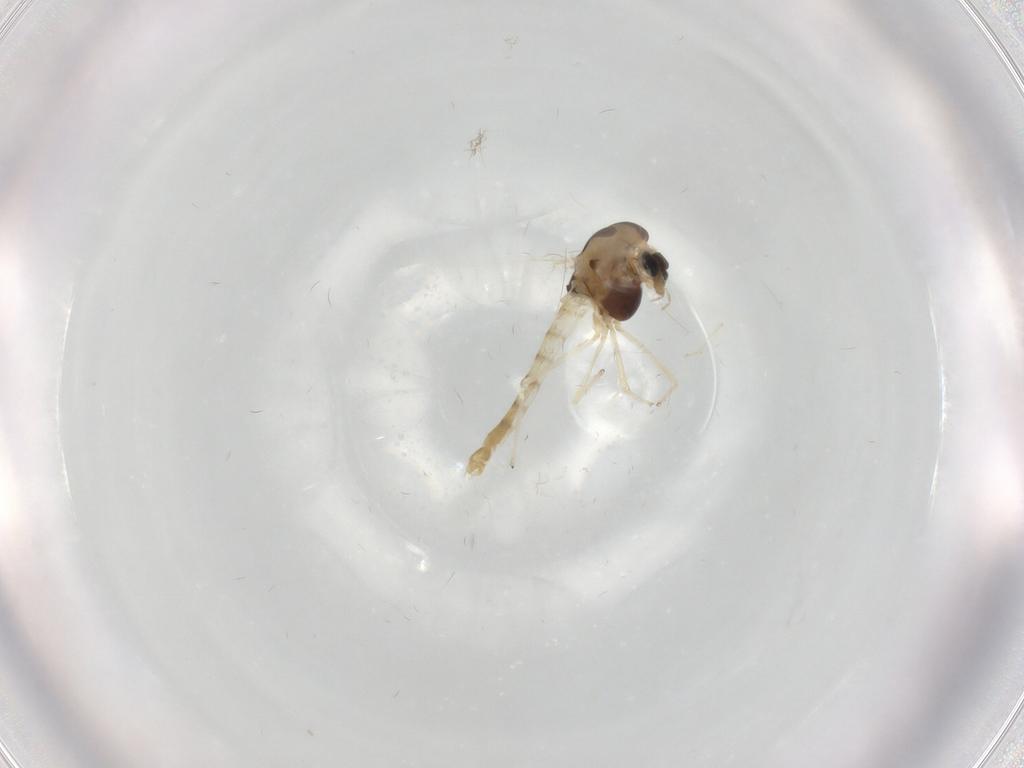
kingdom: Animalia
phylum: Arthropoda
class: Insecta
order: Diptera
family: Chironomidae
